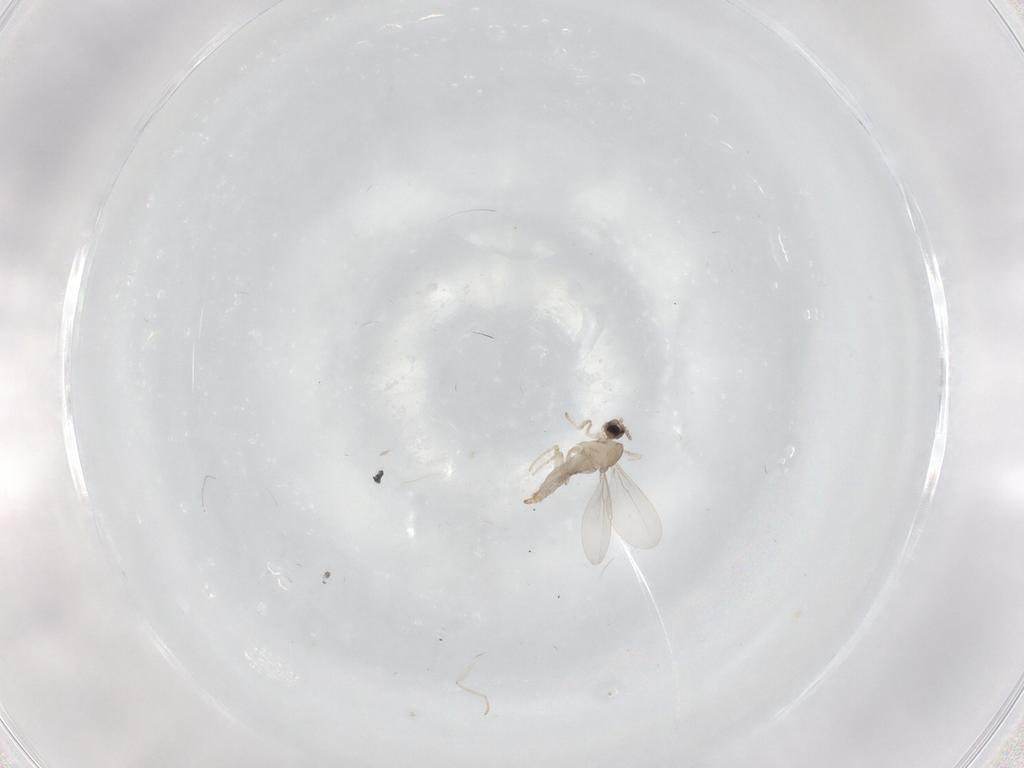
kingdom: Animalia
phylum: Arthropoda
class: Insecta
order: Diptera
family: Cecidomyiidae
